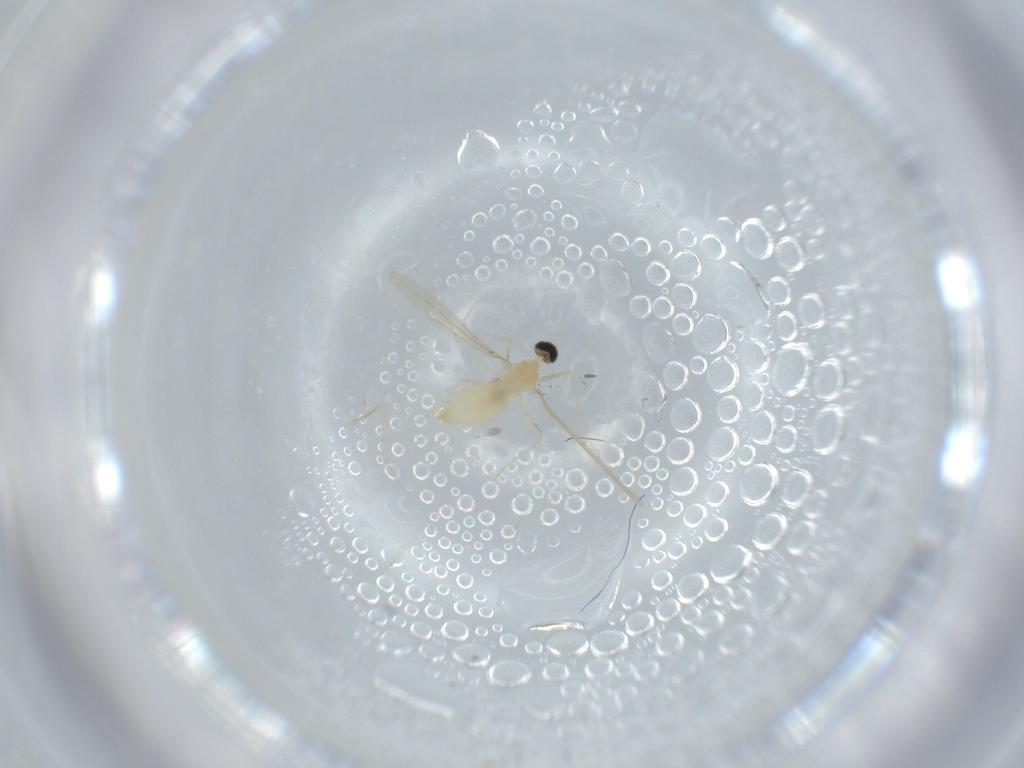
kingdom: Animalia
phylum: Arthropoda
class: Insecta
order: Diptera
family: Cecidomyiidae
